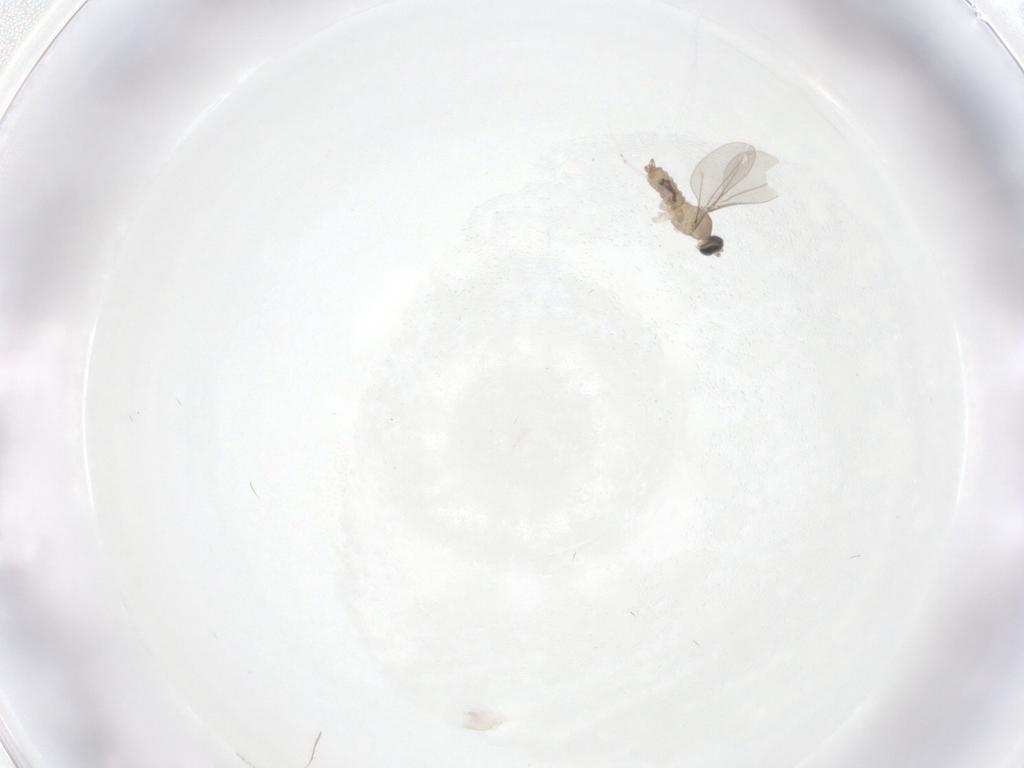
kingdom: Animalia
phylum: Arthropoda
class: Insecta
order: Diptera
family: Cecidomyiidae
